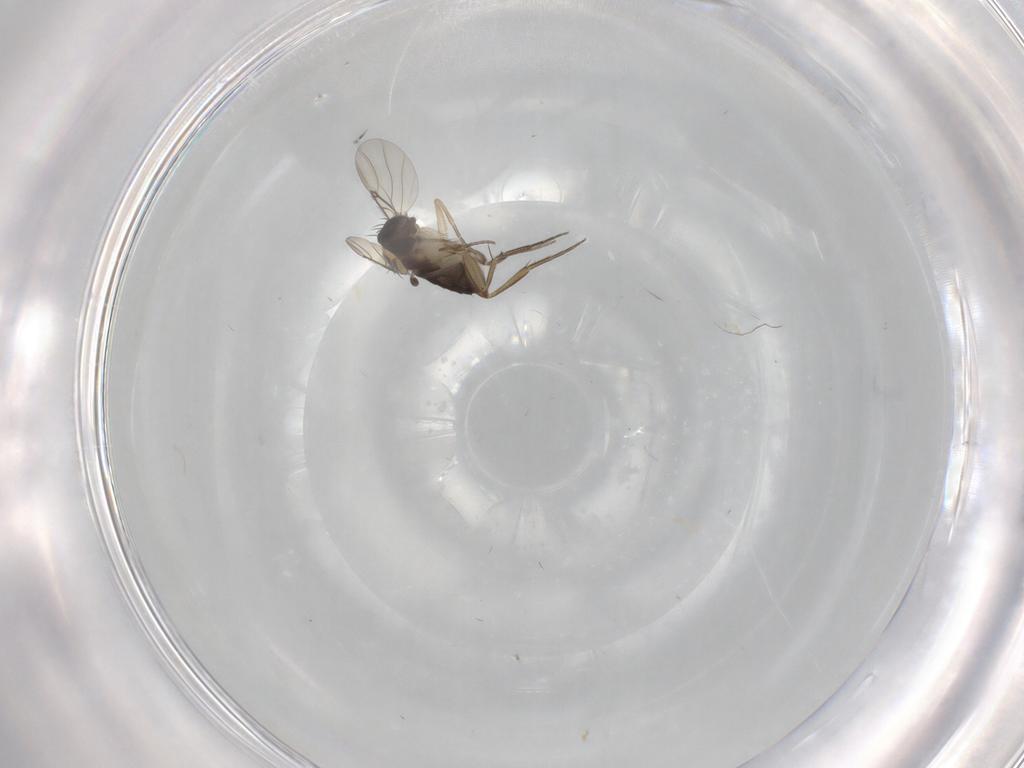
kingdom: Animalia
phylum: Arthropoda
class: Insecta
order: Diptera
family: Phoridae
